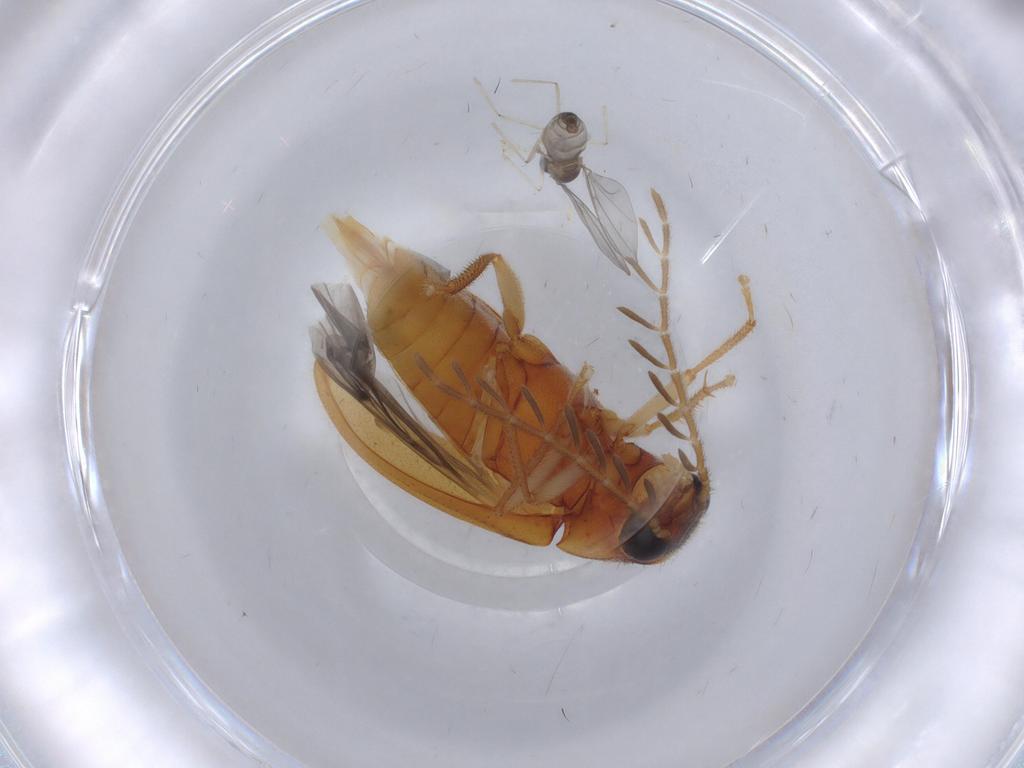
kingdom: Animalia
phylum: Arthropoda
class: Insecta
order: Coleoptera
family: Ptilodactylidae
